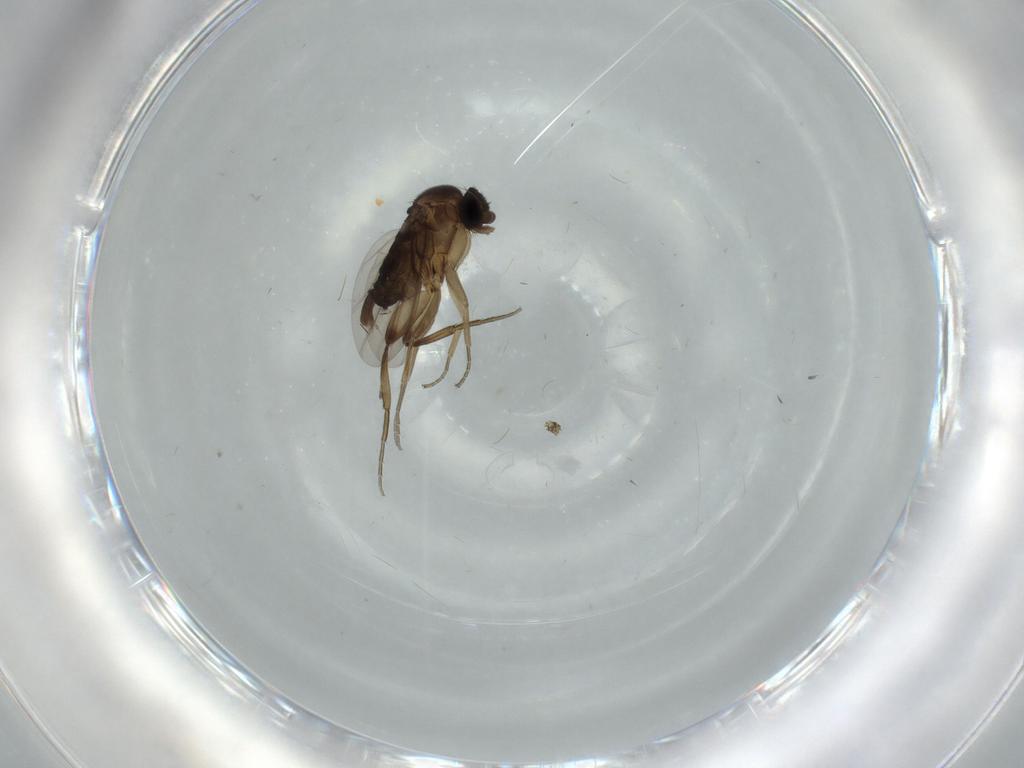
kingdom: Animalia
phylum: Arthropoda
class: Insecta
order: Diptera
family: Phoridae
